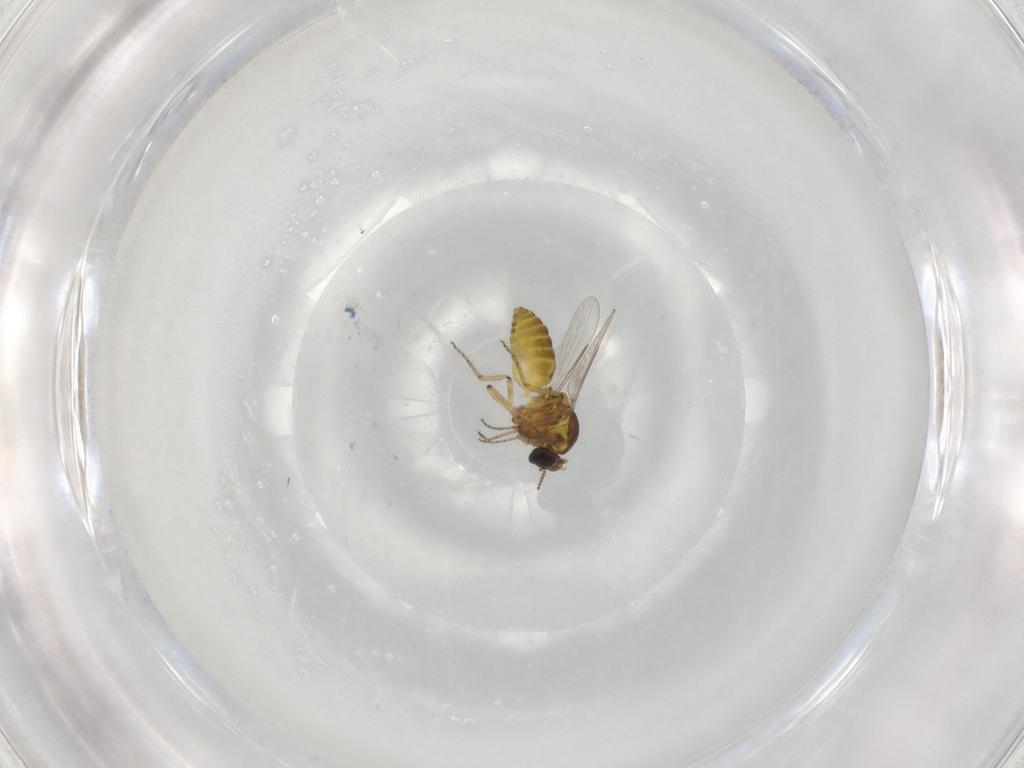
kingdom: Animalia
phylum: Arthropoda
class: Insecta
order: Diptera
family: Ceratopogonidae
